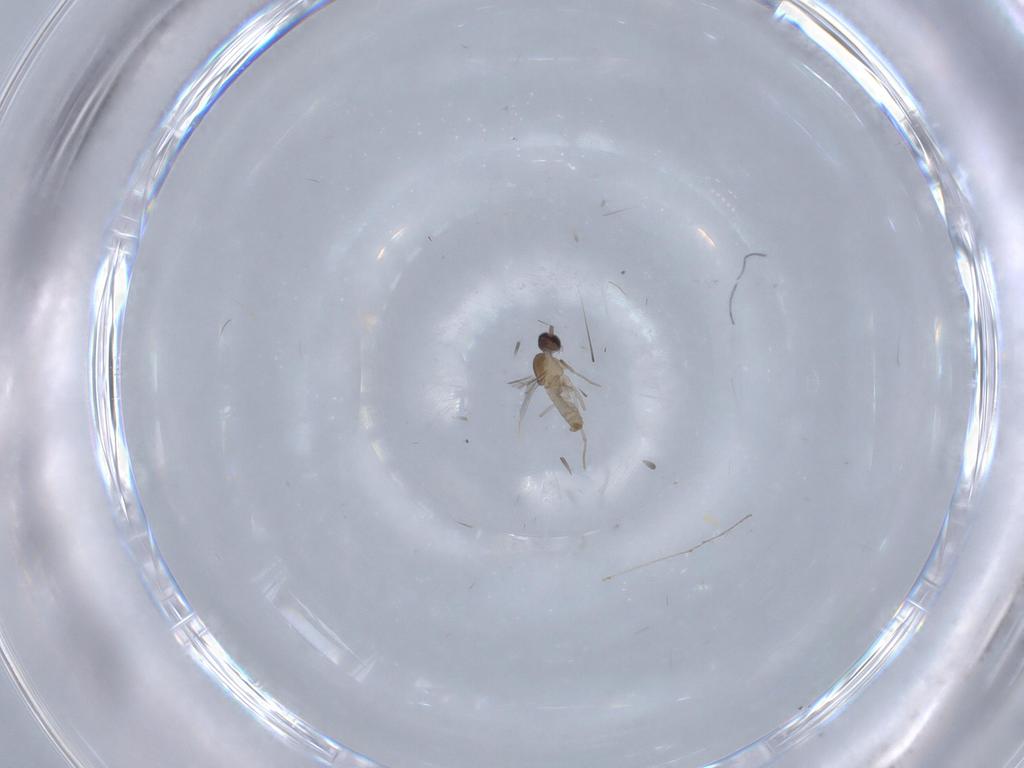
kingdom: Animalia
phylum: Arthropoda
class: Insecta
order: Diptera
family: Cecidomyiidae
